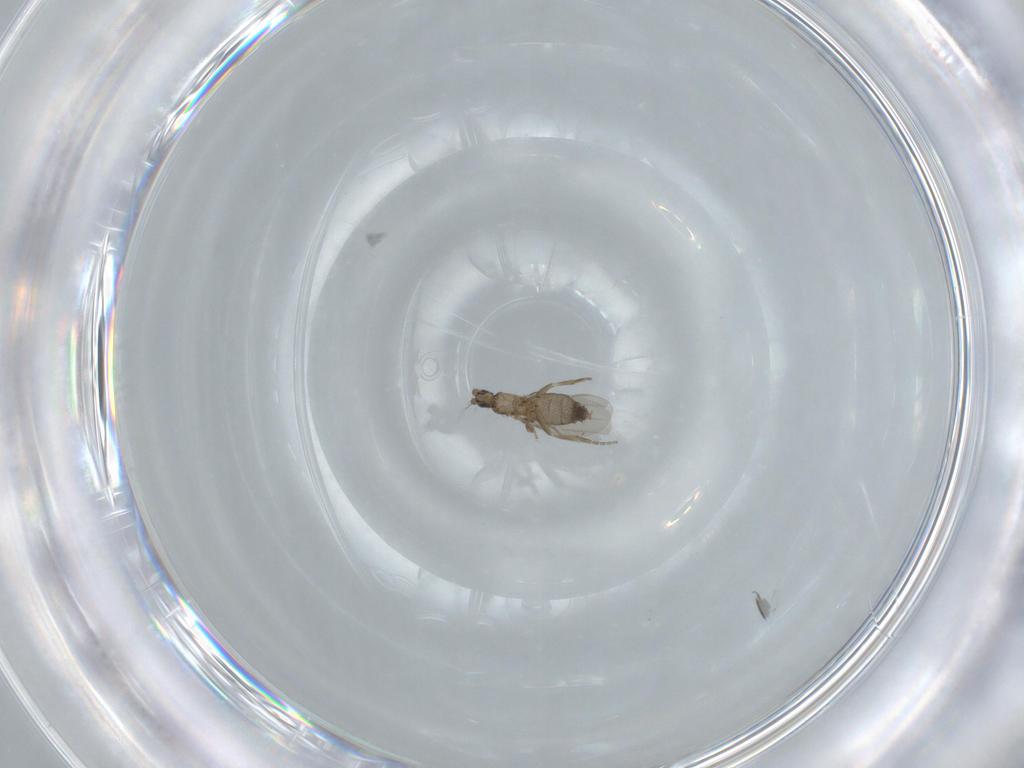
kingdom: Animalia
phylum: Arthropoda
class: Insecta
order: Diptera
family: Phoridae
